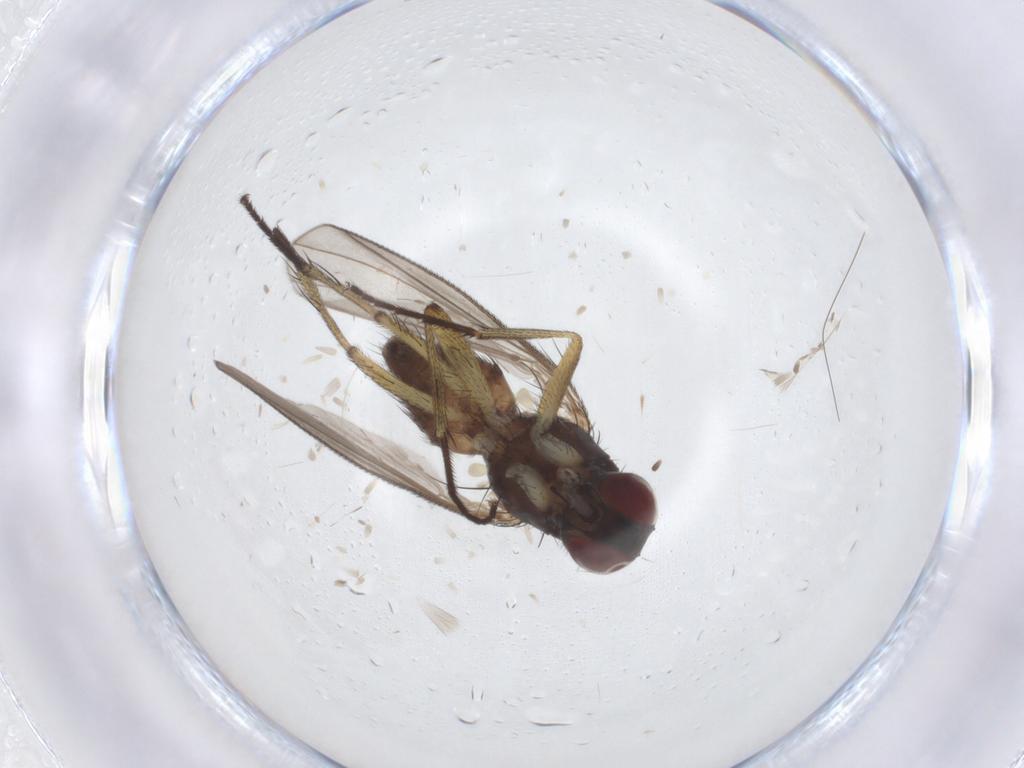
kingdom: Animalia
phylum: Arthropoda
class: Insecta
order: Diptera
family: Muscidae
